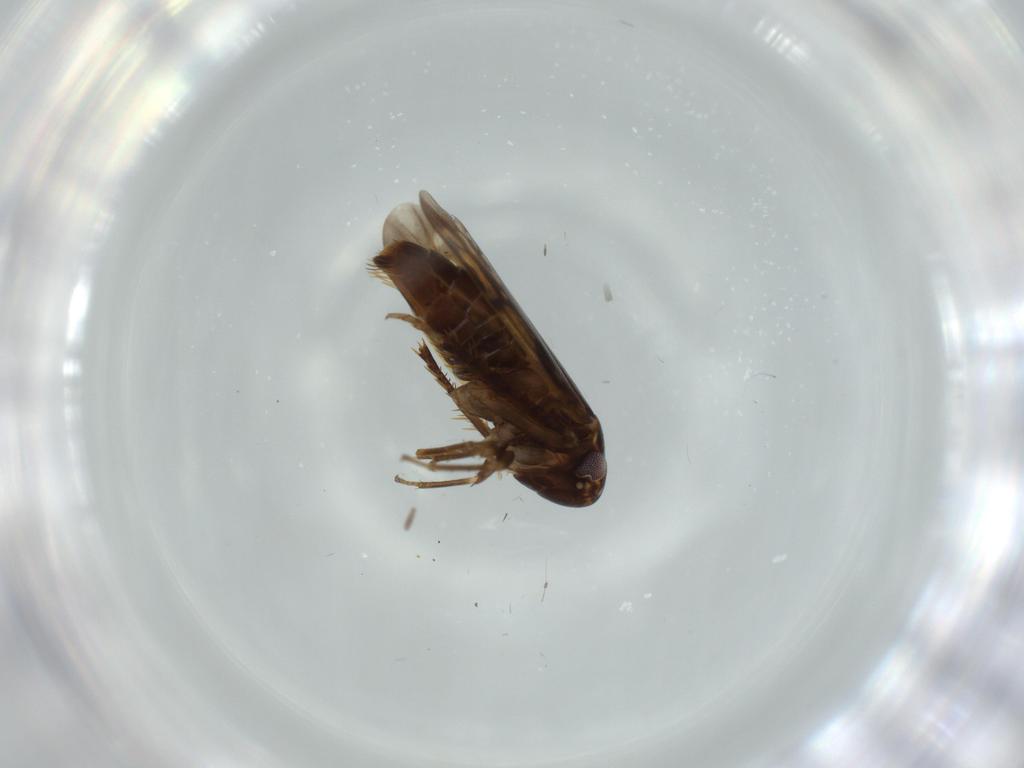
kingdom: Animalia
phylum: Arthropoda
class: Insecta
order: Hemiptera
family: Cicadellidae
